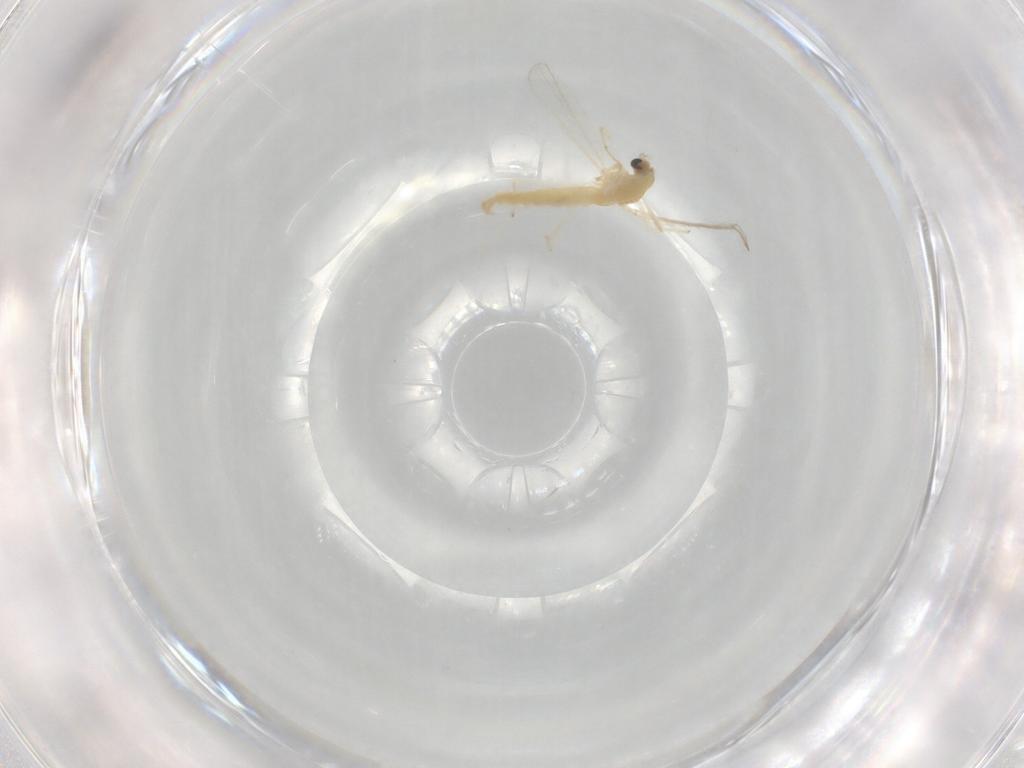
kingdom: Animalia
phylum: Arthropoda
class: Insecta
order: Diptera
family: Chironomidae
